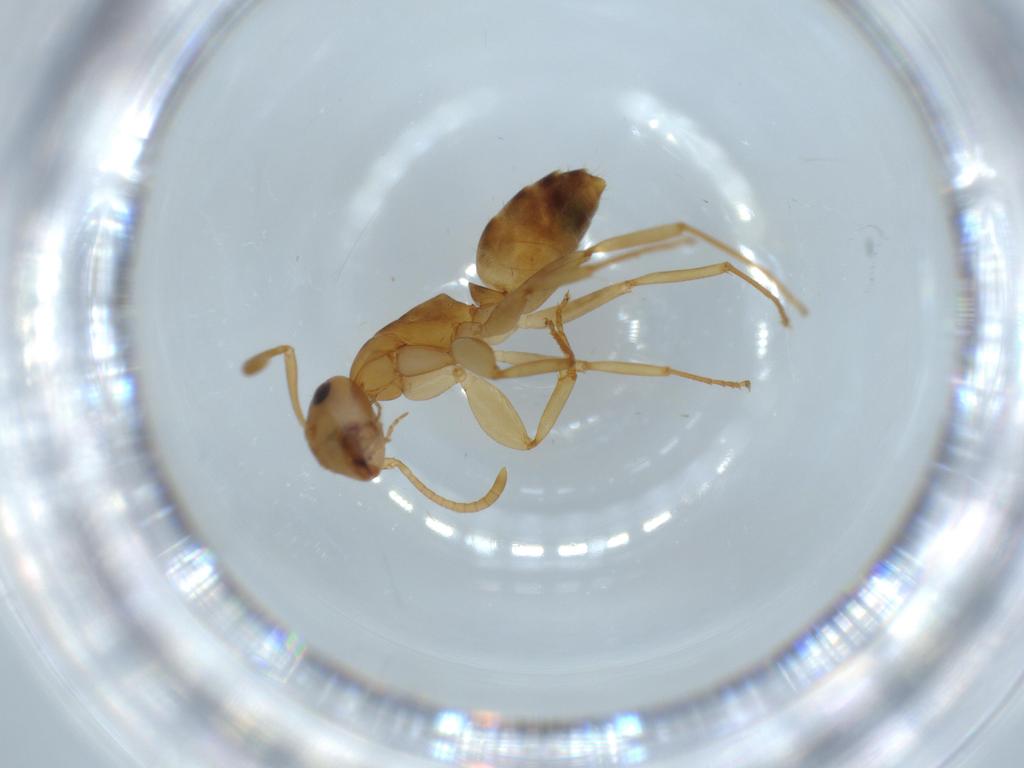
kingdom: Animalia
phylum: Arthropoda
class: Insecta
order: Hymenoptera
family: Formicidae
